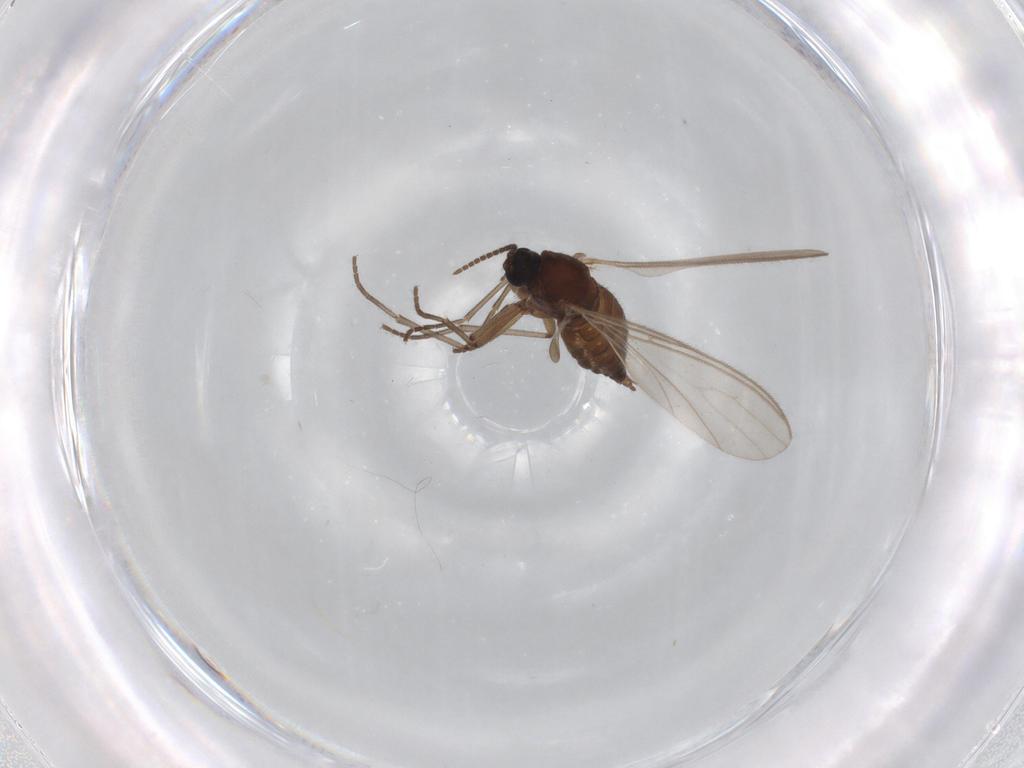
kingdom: Animalia
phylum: Arthropoda
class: Insecta
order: Diptera
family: Sciaridae
